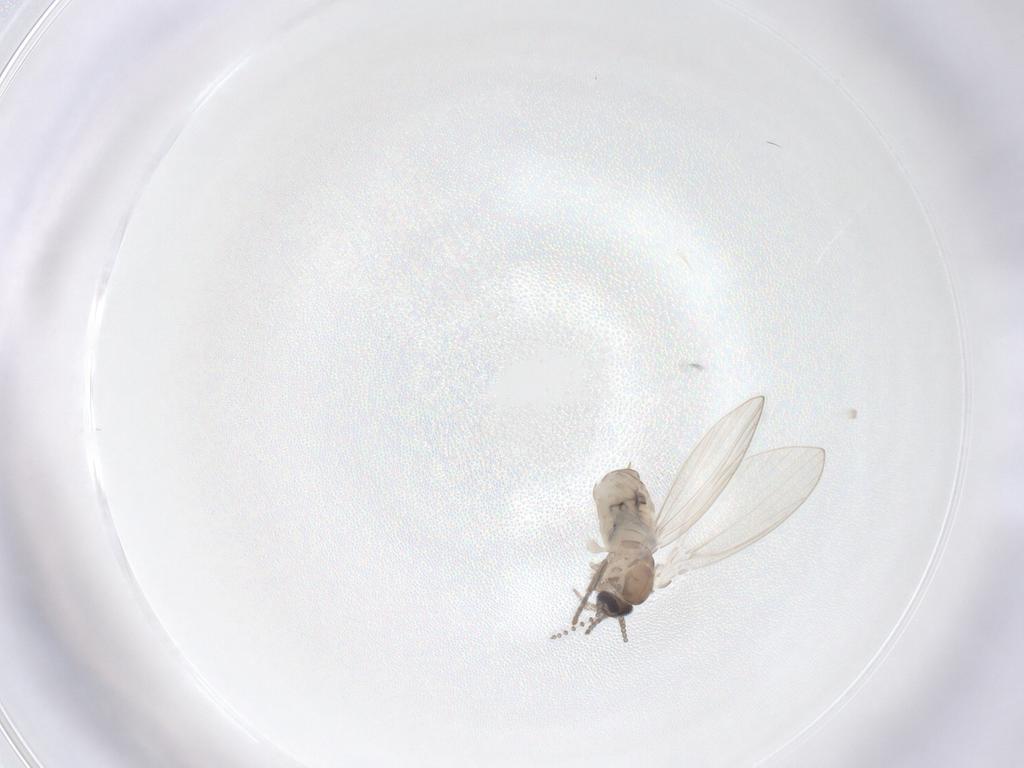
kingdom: Animalia
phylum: Arthropoda
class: Insecta
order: Diptera
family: Psychodidae
